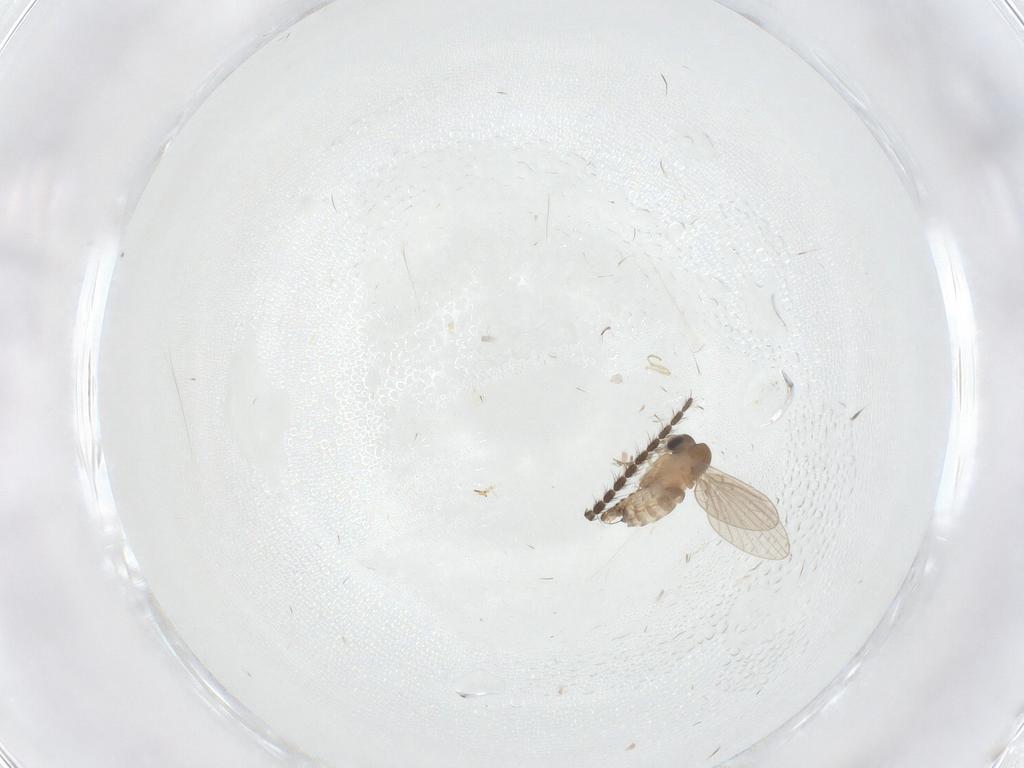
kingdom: Animalia
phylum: Arthropoda
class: Insecta
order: Diptera
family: Cecidomyiidae
